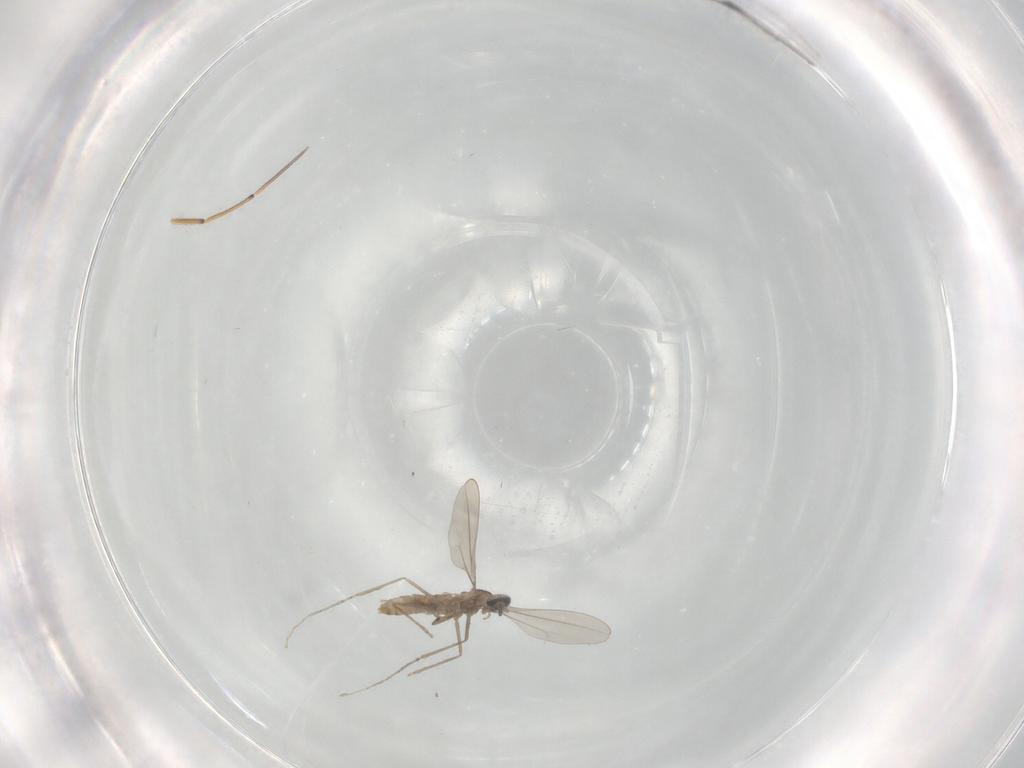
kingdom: Animalia
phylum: Arthropoda
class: Insecta
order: Diptera
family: Chironomidae
